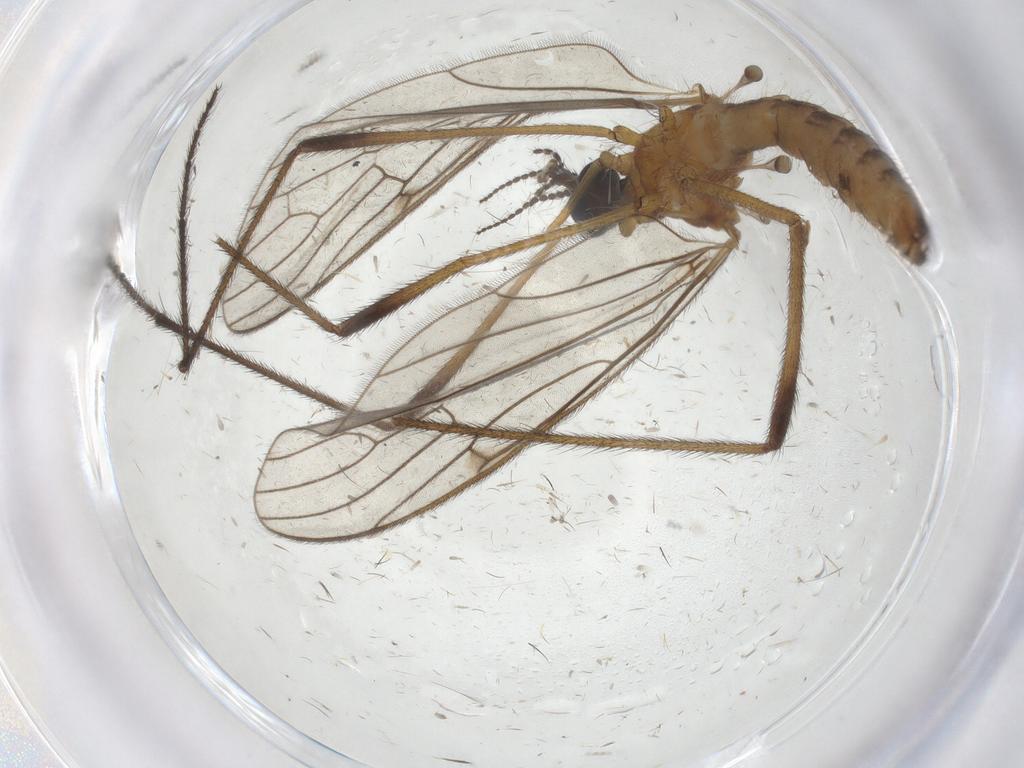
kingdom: Animalia
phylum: Arthropoda
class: Insecta
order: Diptera
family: Limoniidae
